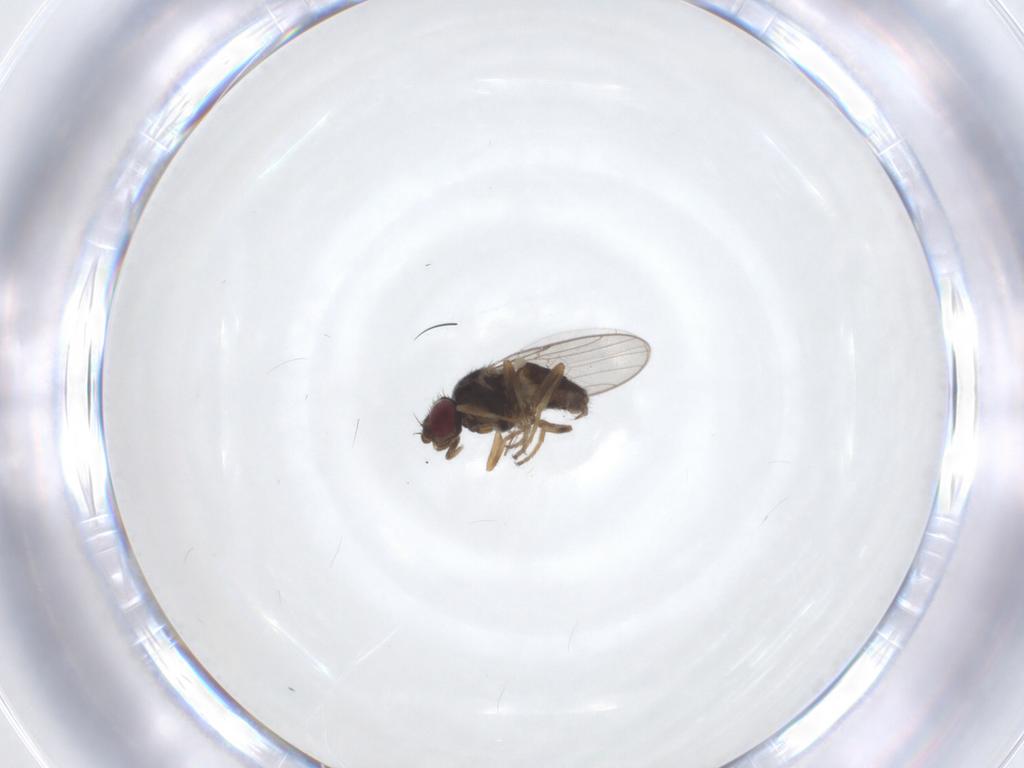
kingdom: Animalia
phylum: Arthropoda
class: Insecta
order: Diptera
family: Chloropidae
